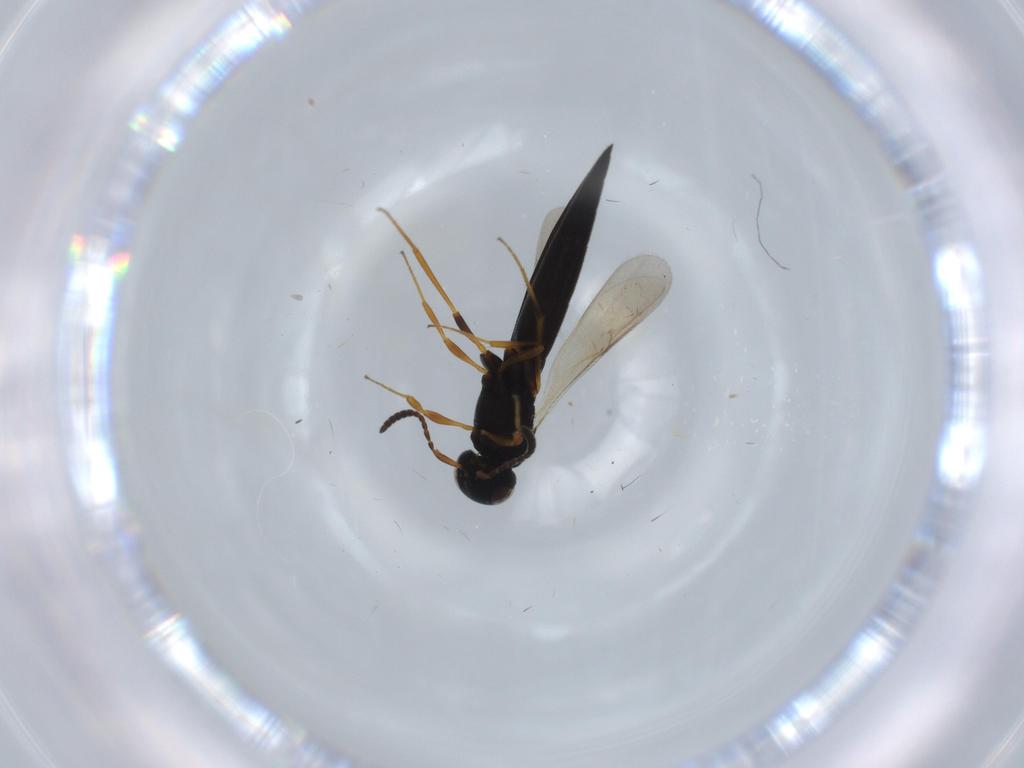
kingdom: Animalia
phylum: Arthropoda
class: Insecta
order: Hymenoptera
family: Scelionidae
